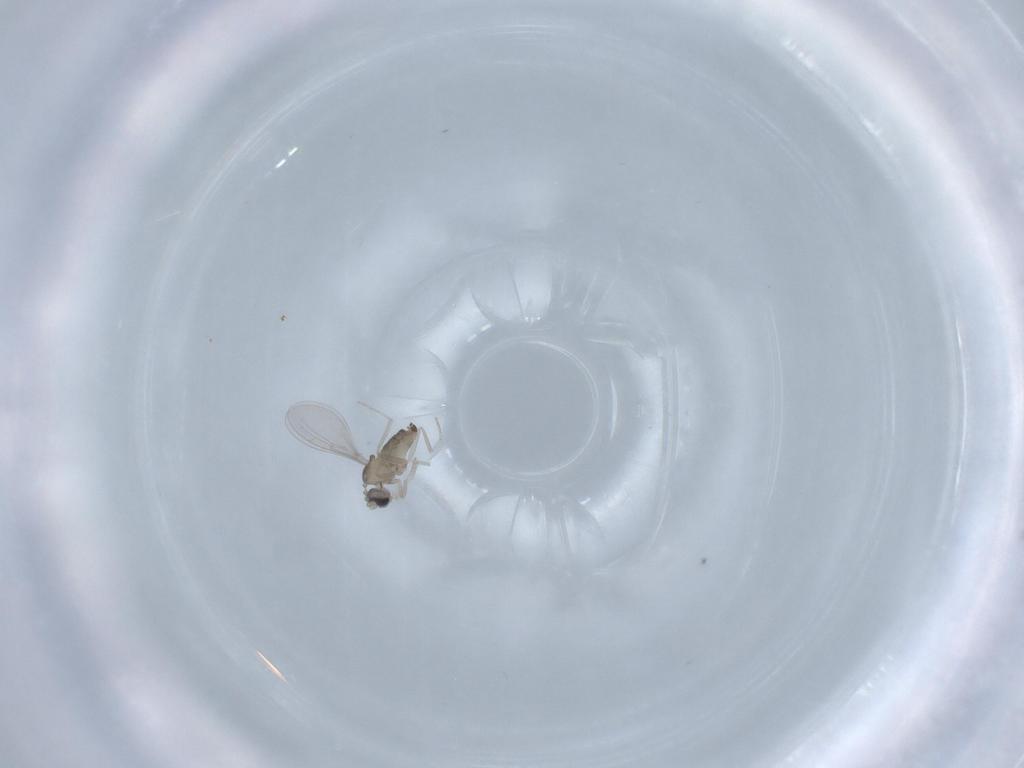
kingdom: Animalia
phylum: Arthropoda
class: Insecta
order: Diptera
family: Cecidomyiidae
